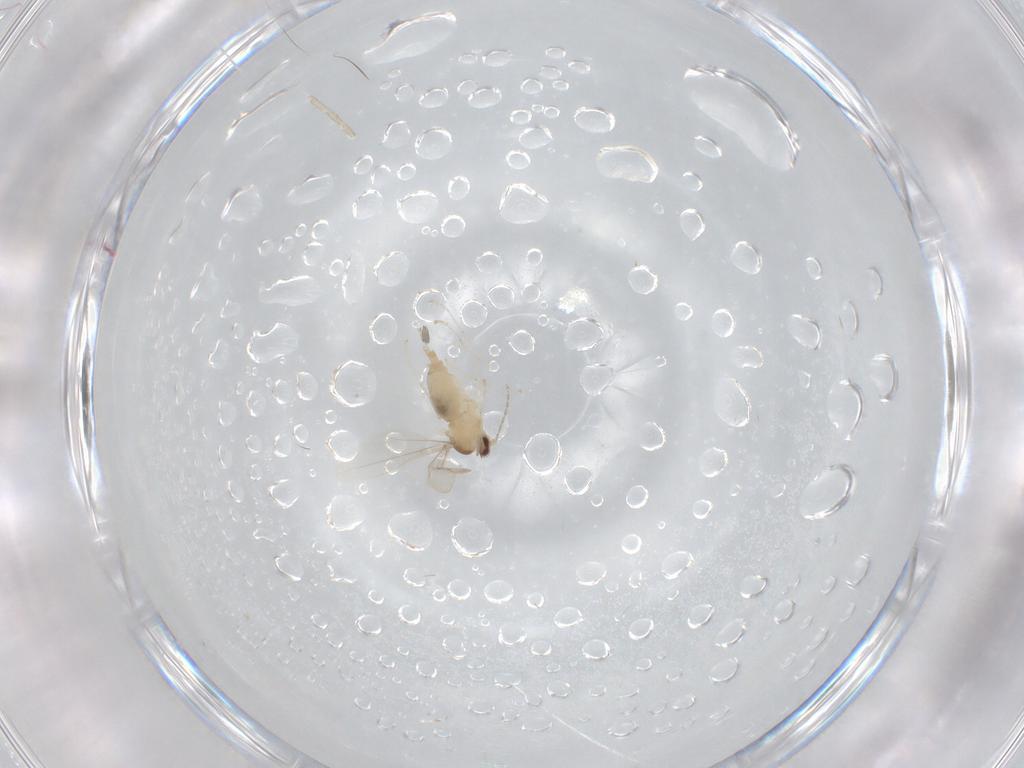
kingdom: Animalia
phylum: Arthropoda
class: Insecta
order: Diptera
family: Cecidomyiidae
